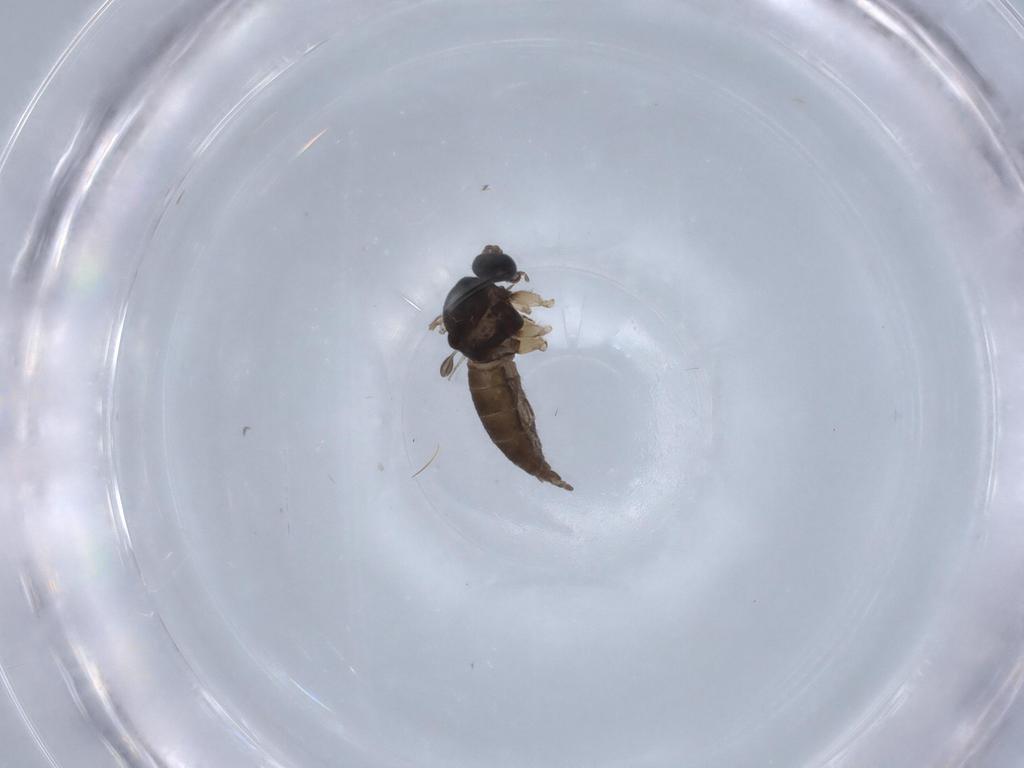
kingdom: Animalia
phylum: Arthropoda
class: Insecta
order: Diptera
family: Sciaridae
